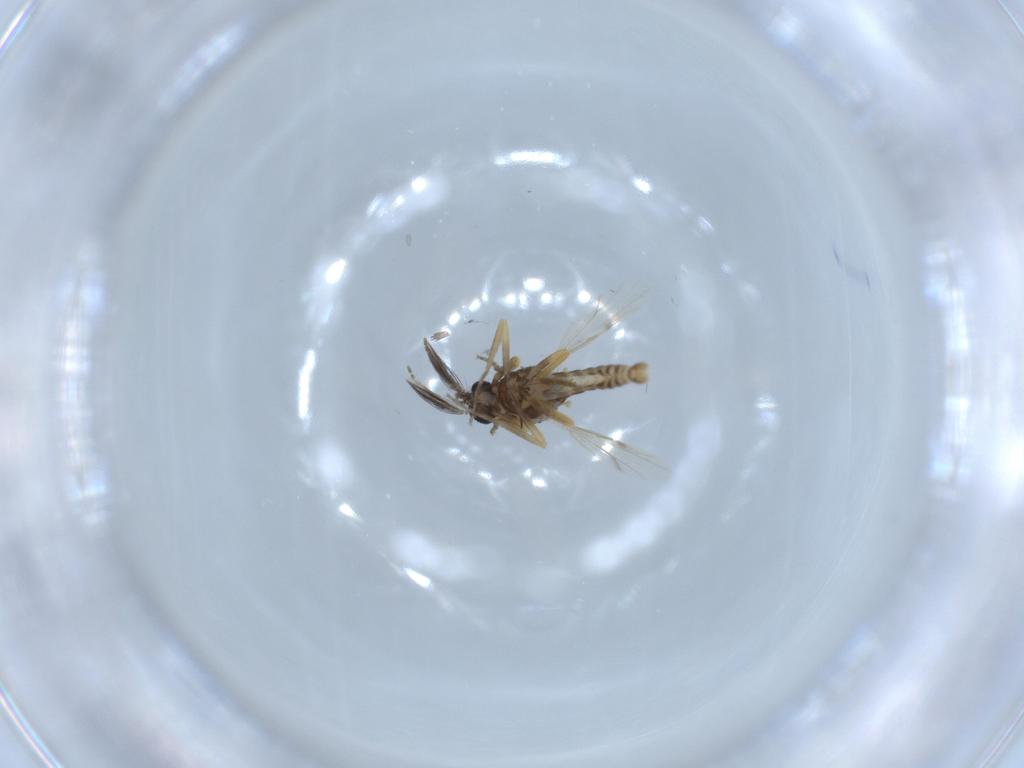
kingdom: Animalia
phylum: Arthropoda
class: Insecta
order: Diptera
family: Ceratopogonidae
